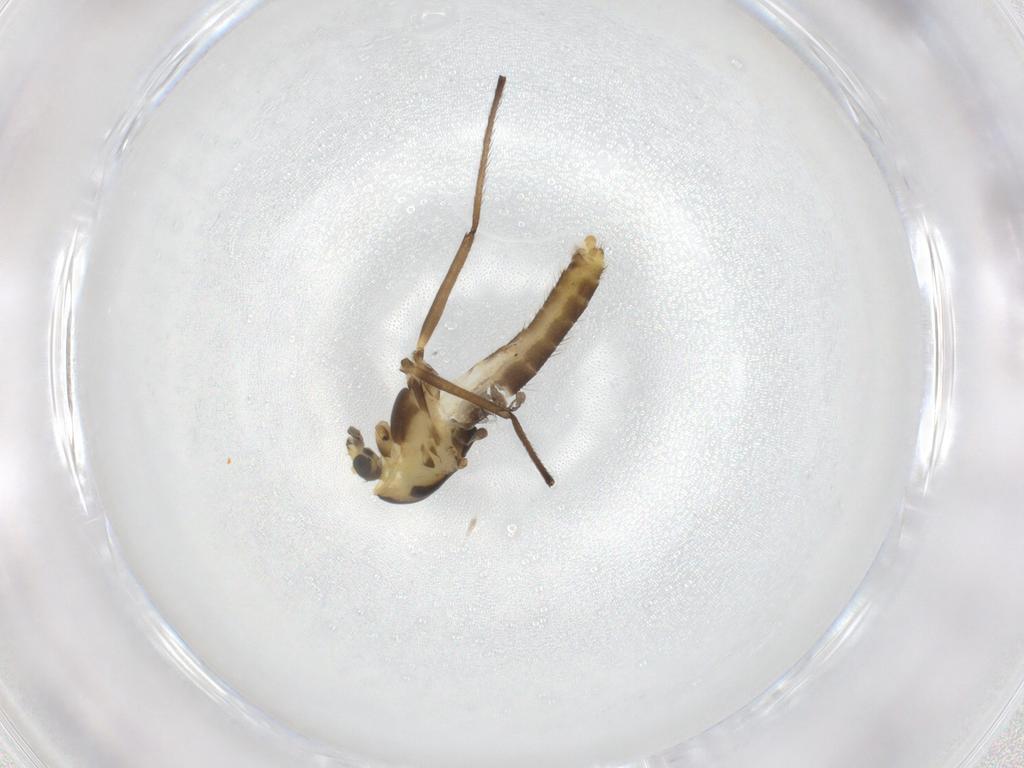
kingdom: Animalia
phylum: Arthropoda
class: Insecta
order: Diptera
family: Chironomidae
